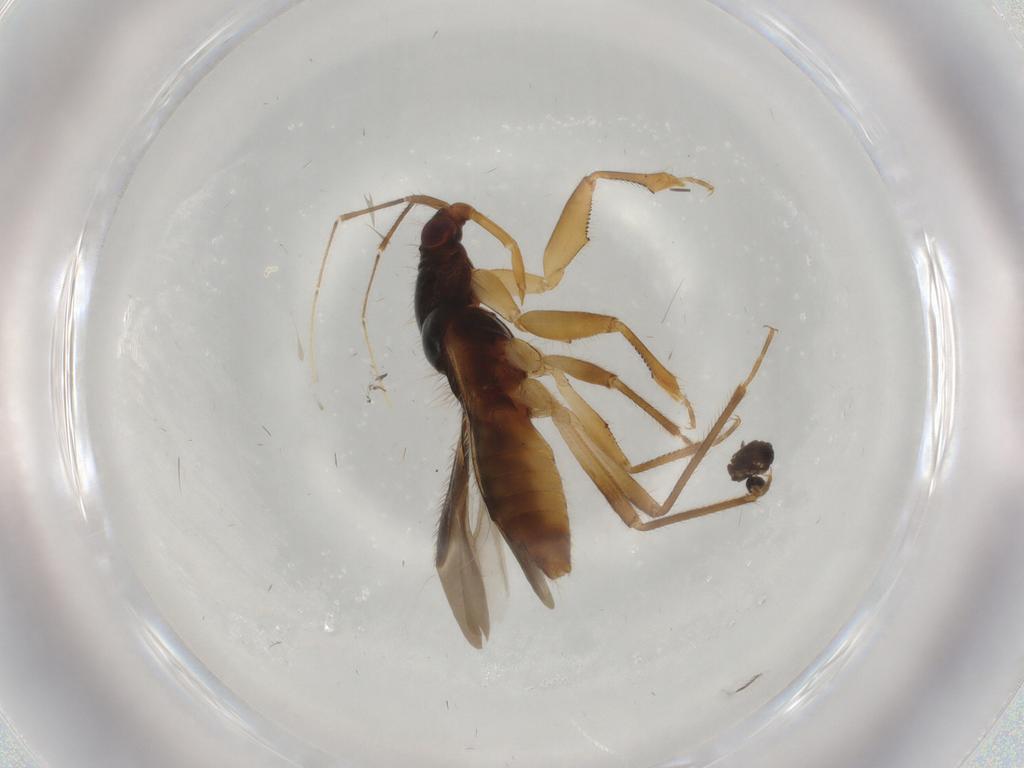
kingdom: Animalia
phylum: Arthropoda
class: Insecta
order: Hemiptera
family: Nabidae
